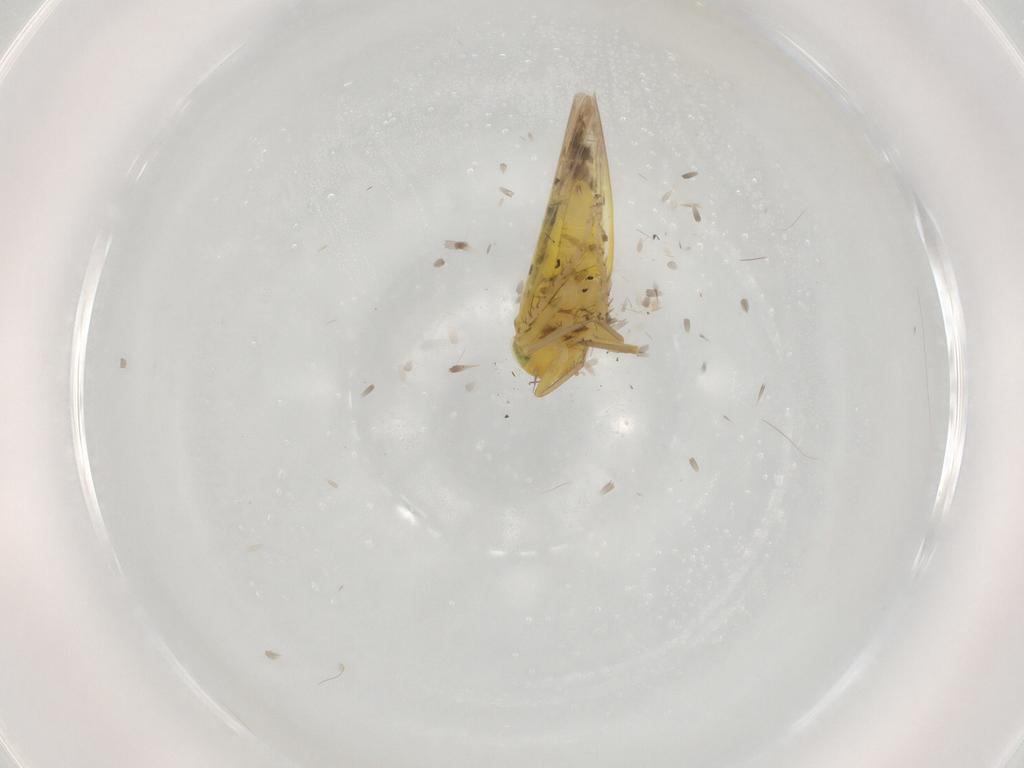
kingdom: Animalia
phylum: Arthropoda
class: Insecta
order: Hemiptera
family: Cicadellidae
